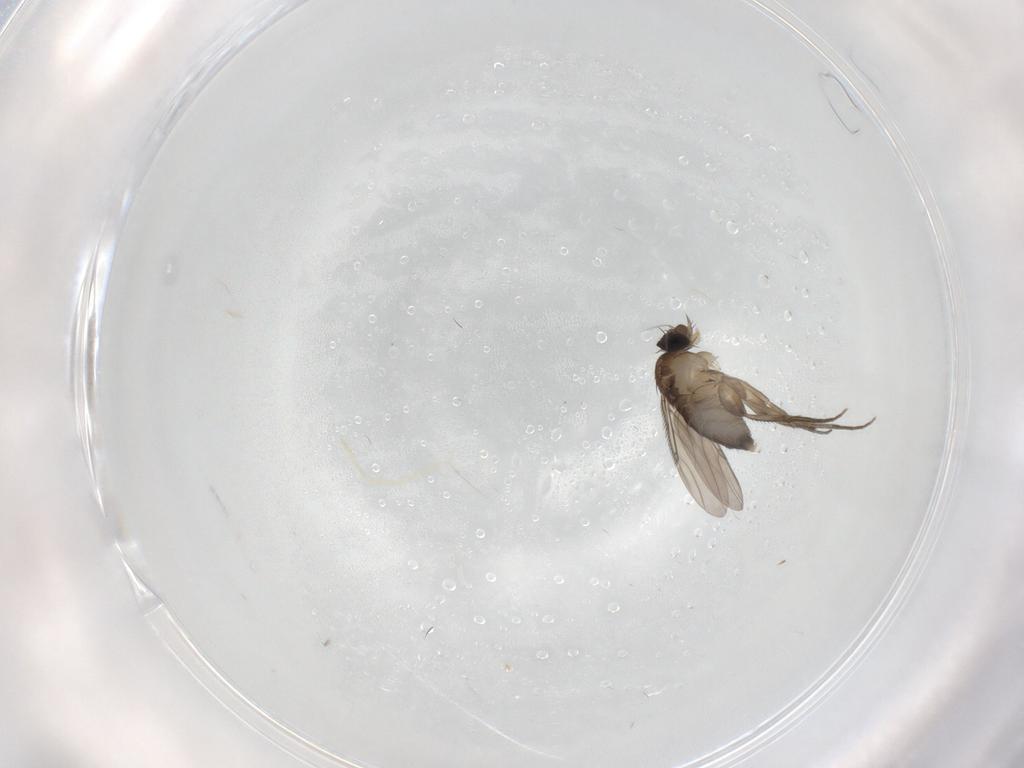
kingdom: Animalia
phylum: Arthropoda
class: Insecta
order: Diptera
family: Phoridae
